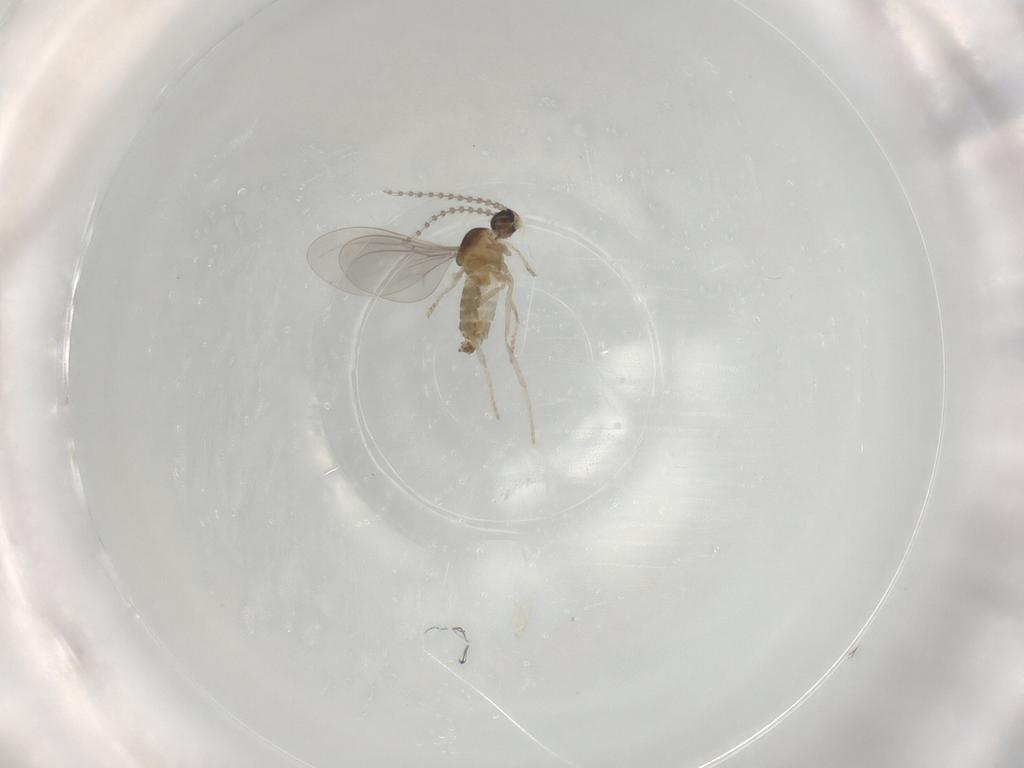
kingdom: Animalia
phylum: Arthropoda
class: Insecta
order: Diptera
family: Cecidomyiidae
